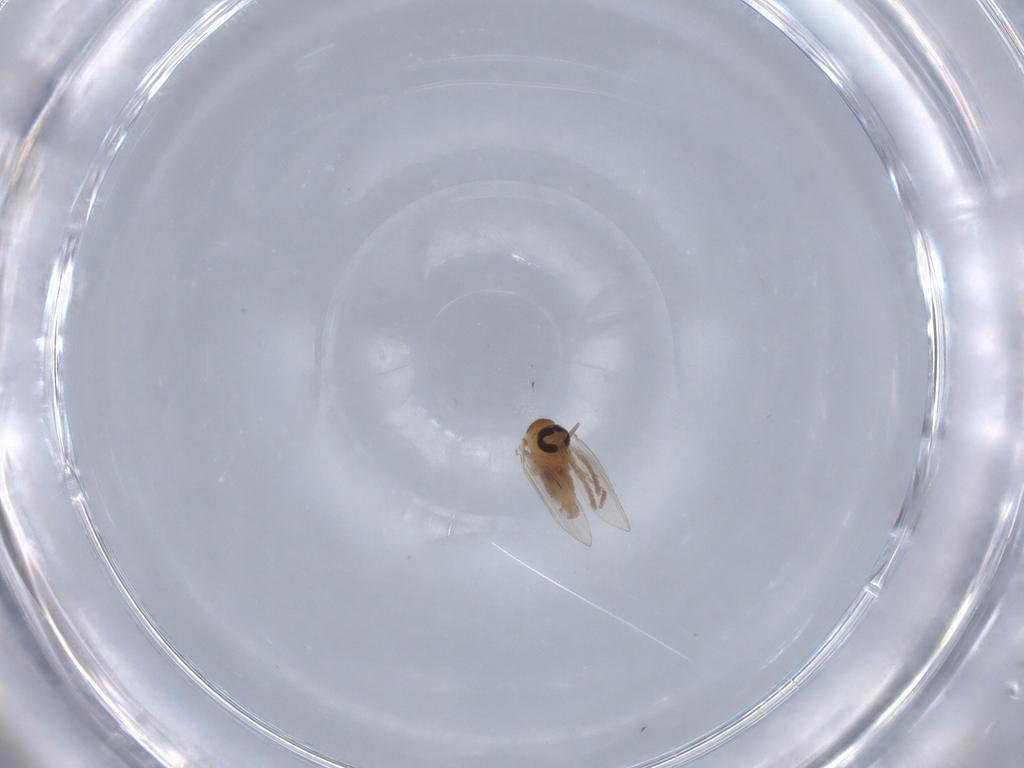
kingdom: Animalia
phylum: Arthropoda
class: Insecta
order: Diptera
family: Psychodidae
